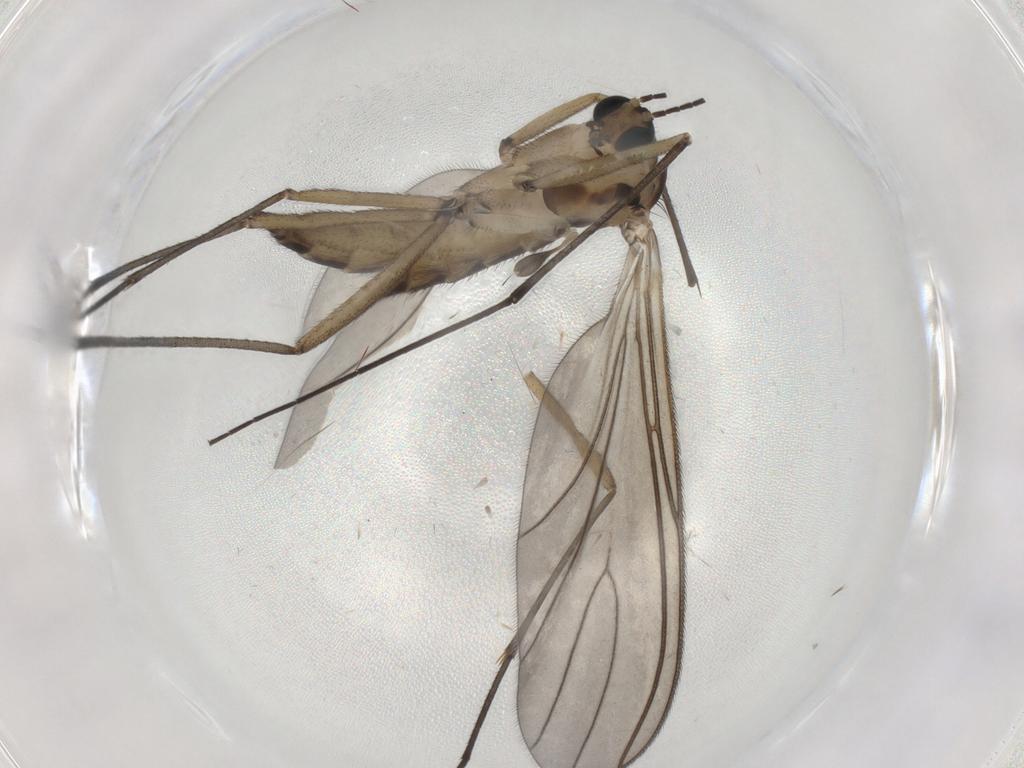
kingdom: Animalia
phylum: Arthropoda
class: Insecta
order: Diptera
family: Sciaridae
